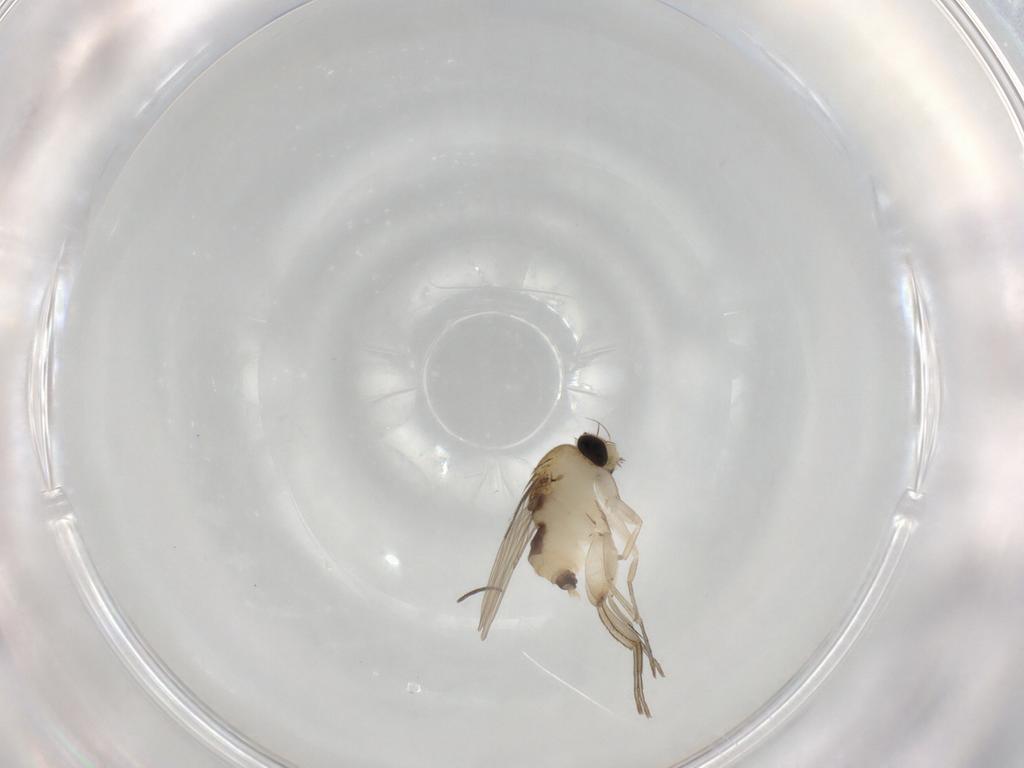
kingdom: Animalia
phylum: Arthropoda
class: Insecta
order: Diptera
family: Phoridae
